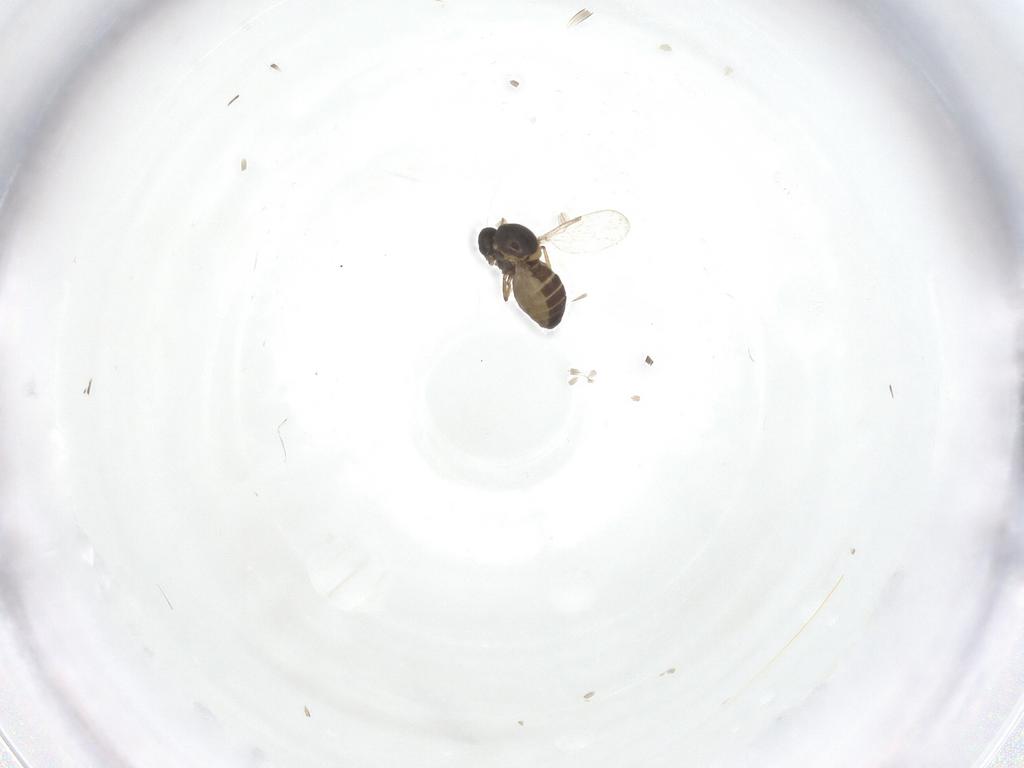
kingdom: Animalia
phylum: Arthropoda
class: Insecta
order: Diptera
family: Ceratopogonidae
